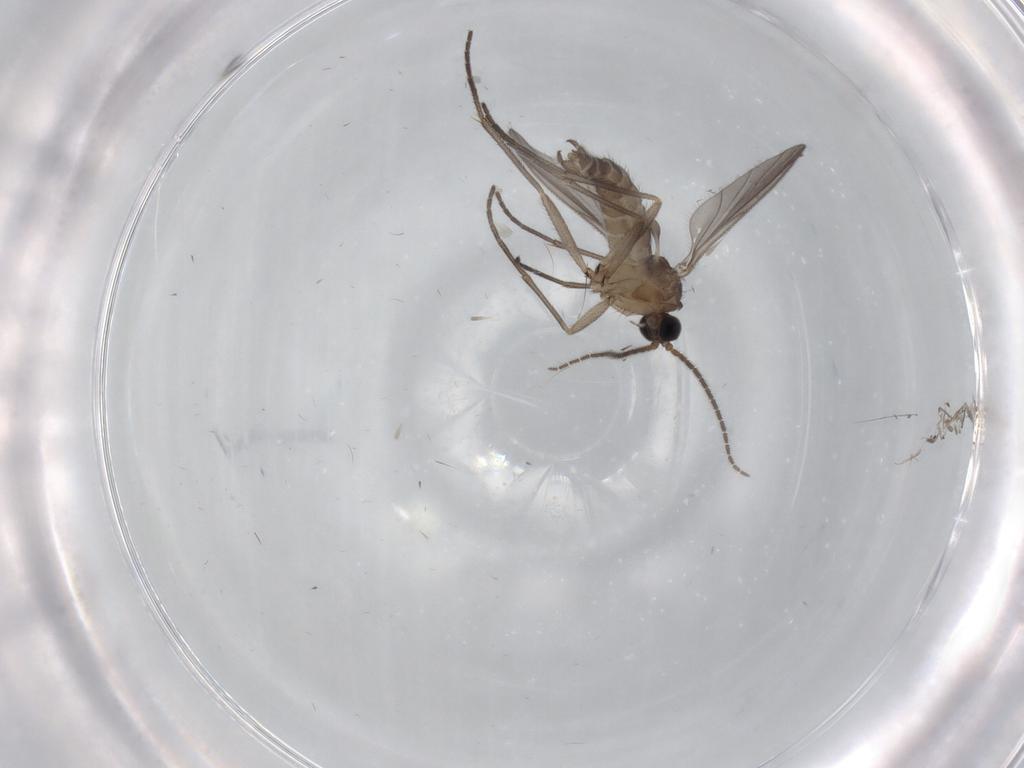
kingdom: Animalia
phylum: Arthropoda
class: Insecta
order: Diptera
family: Sciaridae
